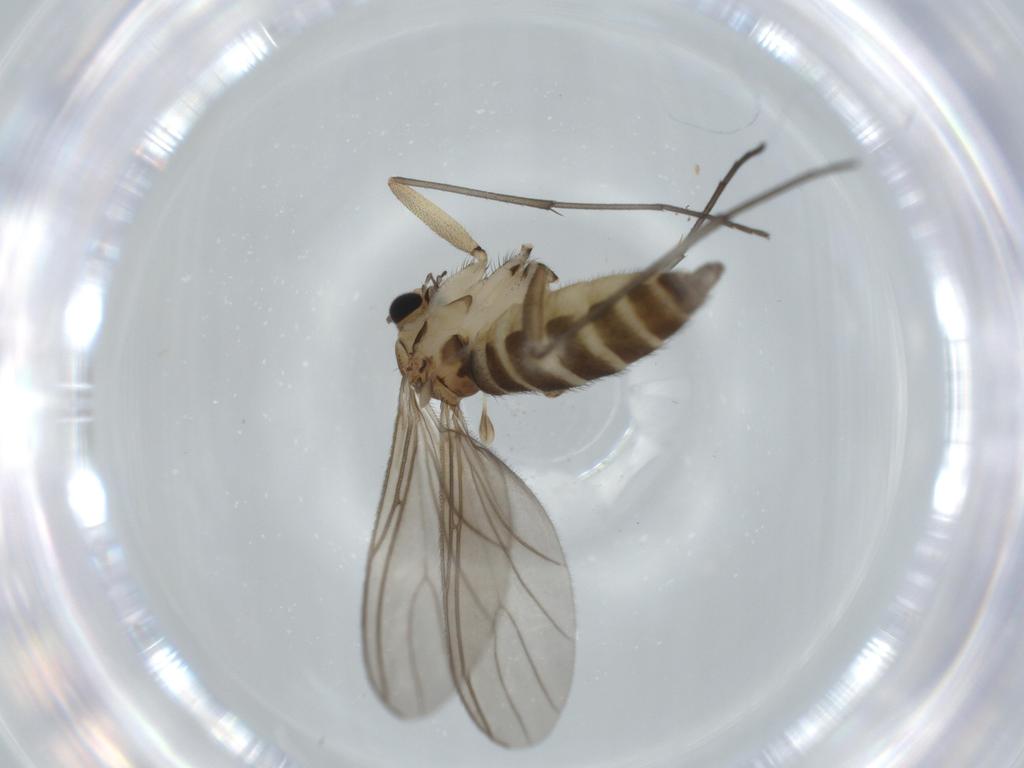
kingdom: Animalia
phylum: Arthropoda
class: Insecta
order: Diptera
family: Sciaridae
